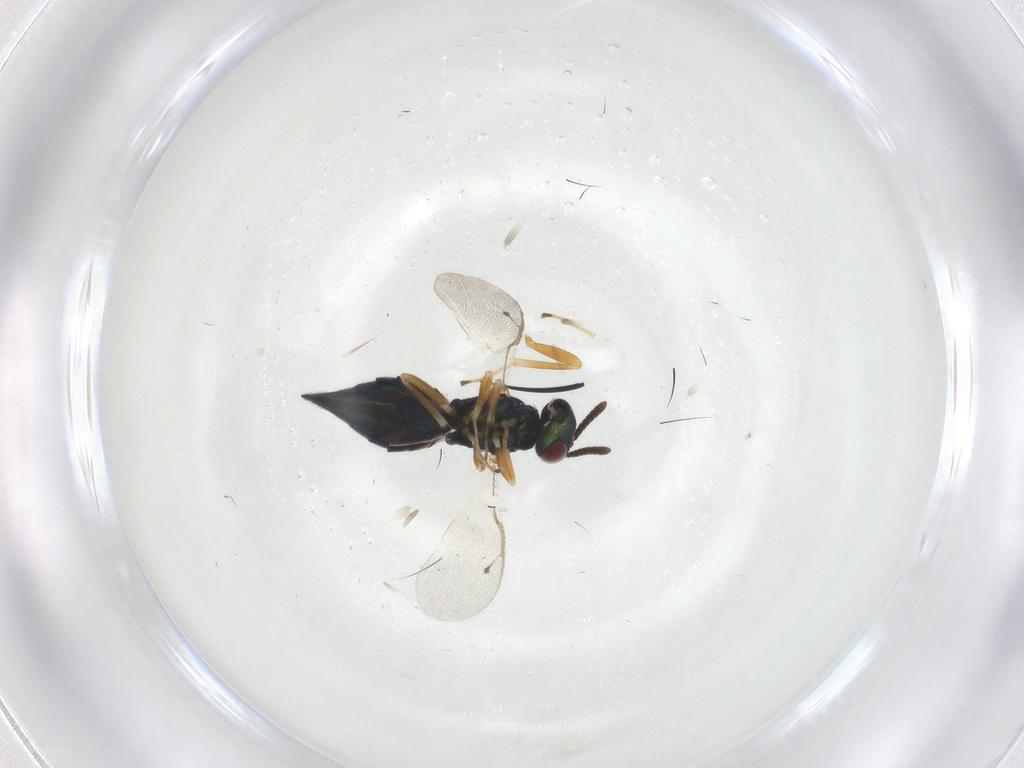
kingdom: Animalia
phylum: Arthropoda
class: Insecta
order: Hymenoptera
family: Pteromalidae
